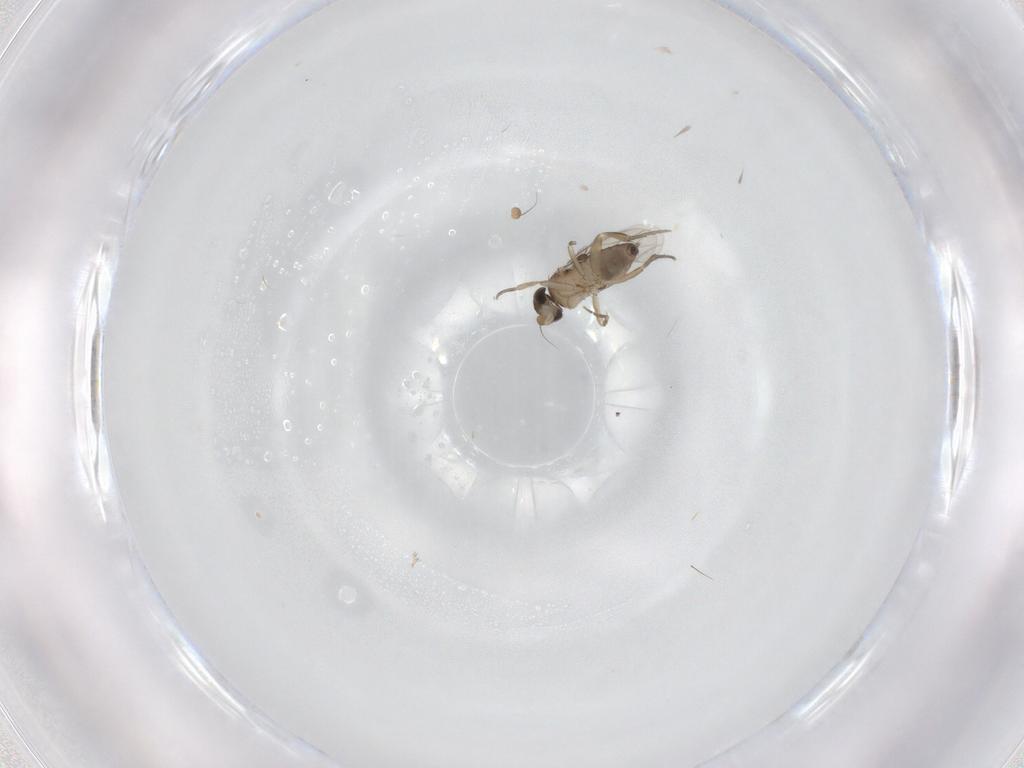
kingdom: Animalia
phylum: Arthropoda
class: Insecta
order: Diptera
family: Phoridae
